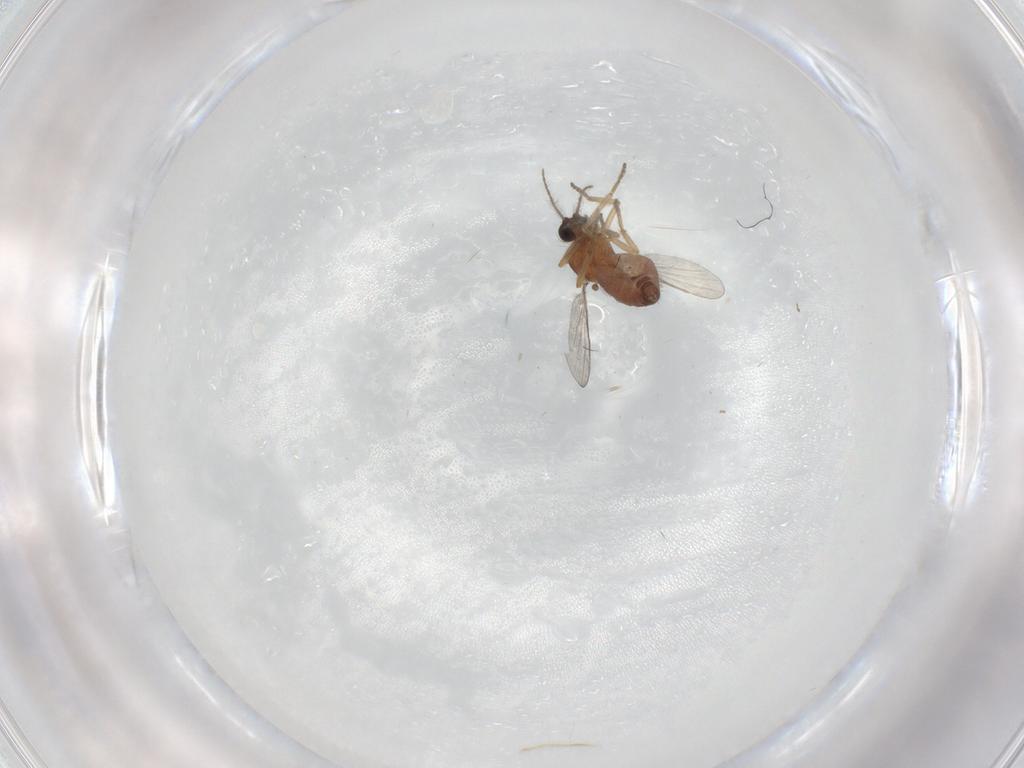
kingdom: Animalia
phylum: Arthropoda
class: Insecta
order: Diptera
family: Ceratopogonidae
